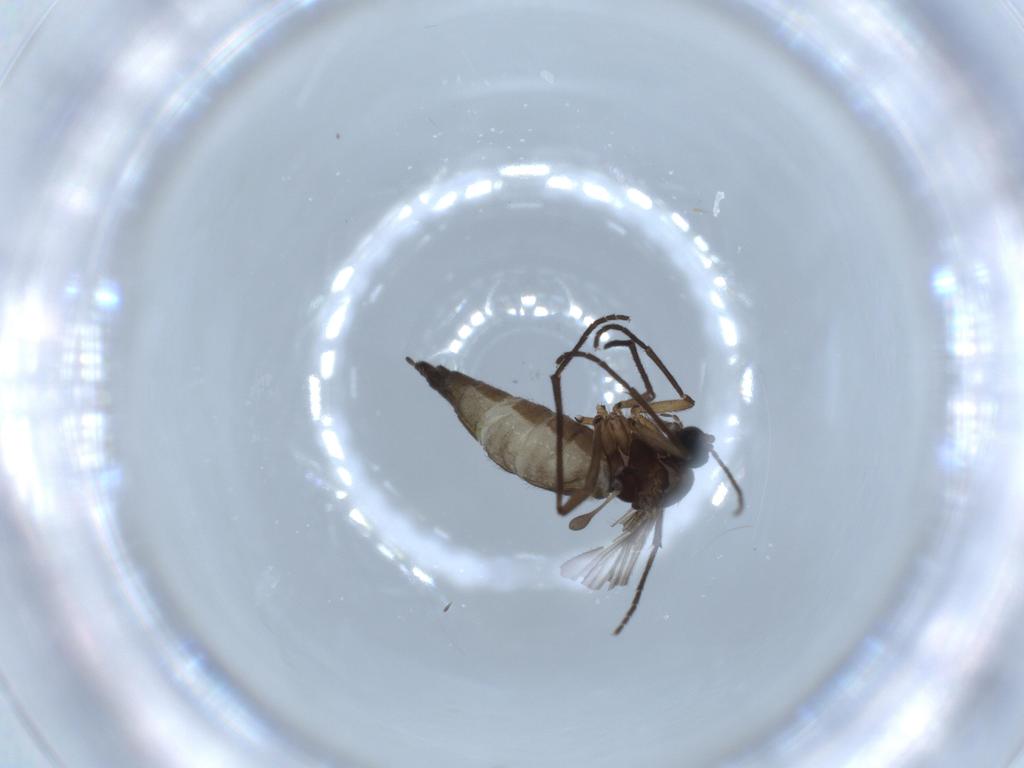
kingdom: Animalia
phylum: Arthropoda
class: Insecta
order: Diptera
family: Sciaridae
